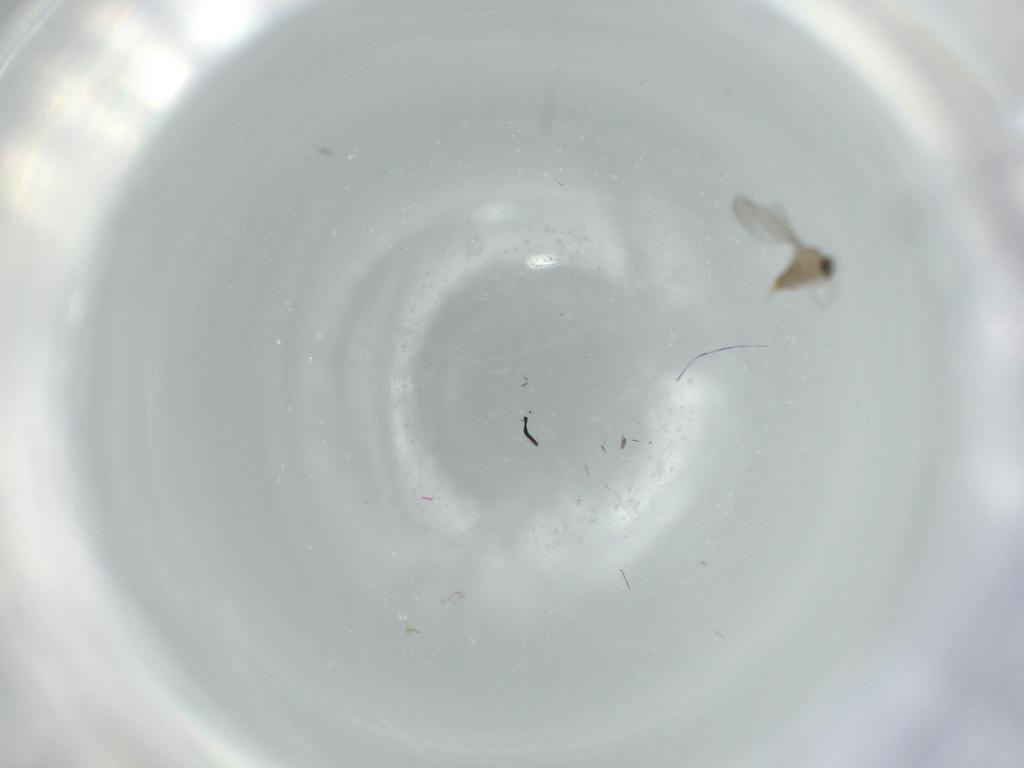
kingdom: Animalia
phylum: Arthropoda
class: Insecta
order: Diptera
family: Cecidomyiidae
